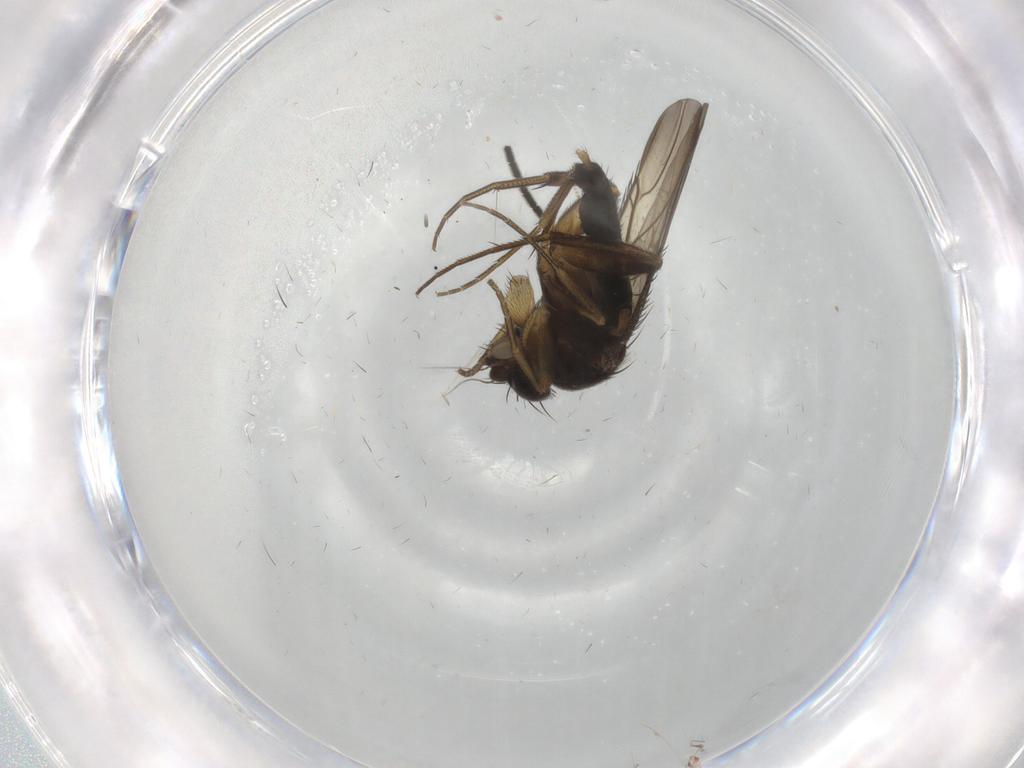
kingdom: Animalia
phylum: Arthropoda
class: Insecta
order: Diptera
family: Phoridae
